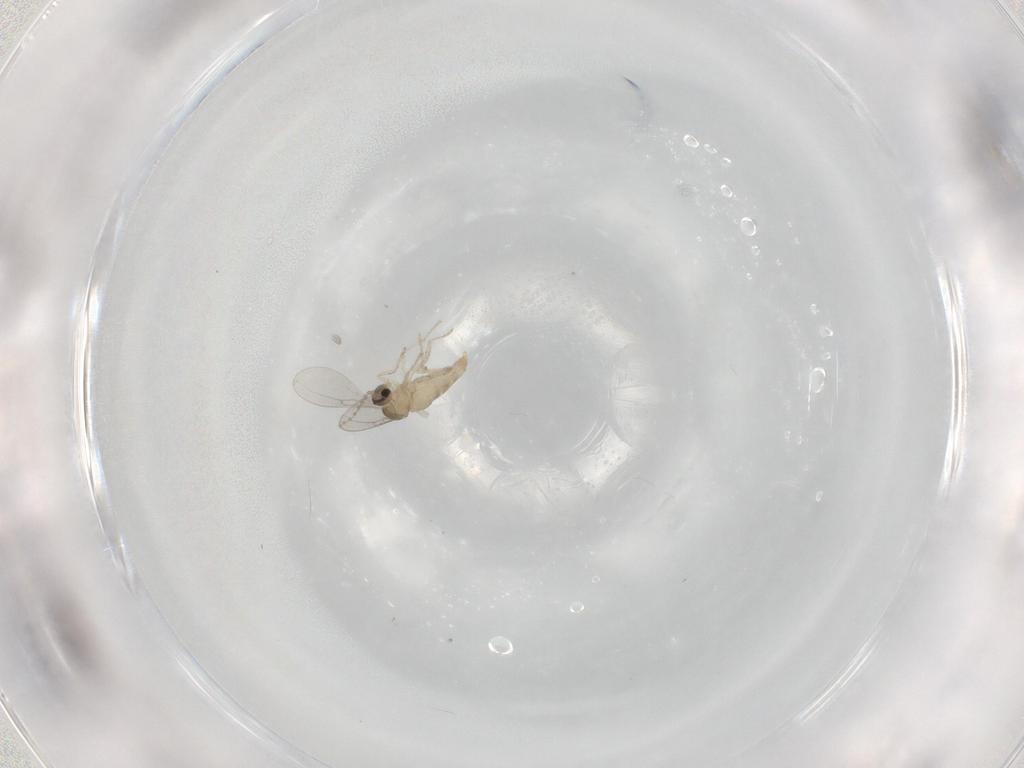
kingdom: Animalia
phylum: Arthropoda
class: Insecta
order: Diptera
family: Cecidomyiidae
